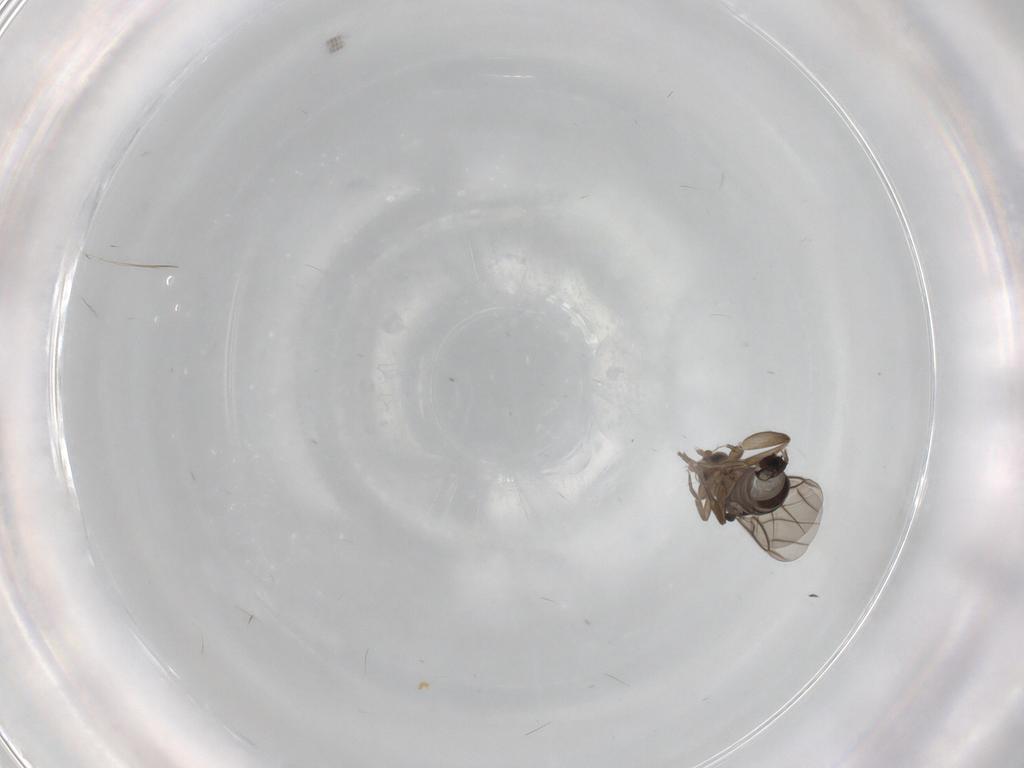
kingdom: Animalia
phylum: Arthropoda
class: Insecta
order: Diptera
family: Phoridae
